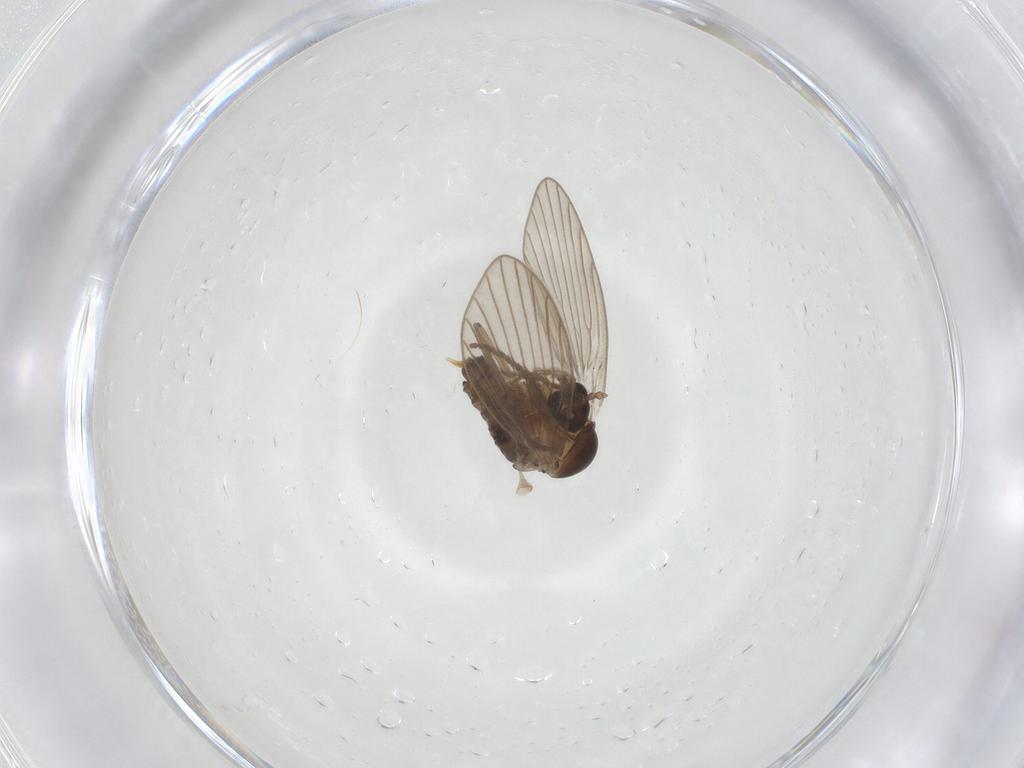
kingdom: Animalia
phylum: Arthropoda
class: Insecta
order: Diptera
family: Psychodidae
